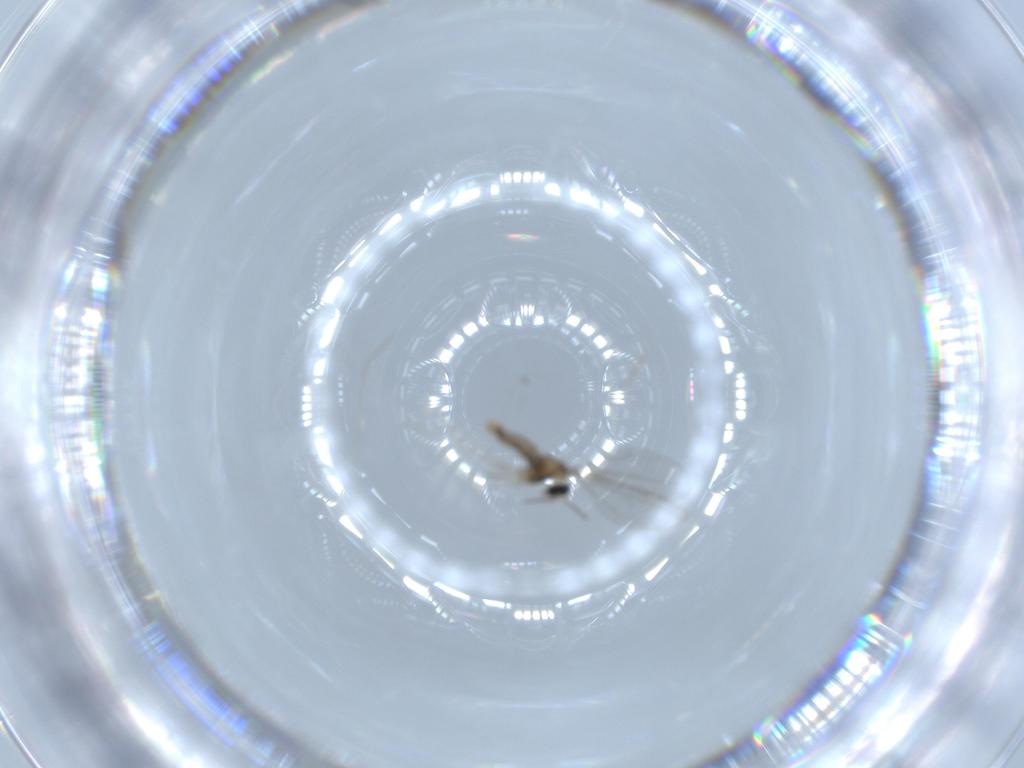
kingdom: Animalia
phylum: Arthropoda
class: Insecta
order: Diptera
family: Cecidomyiidae
